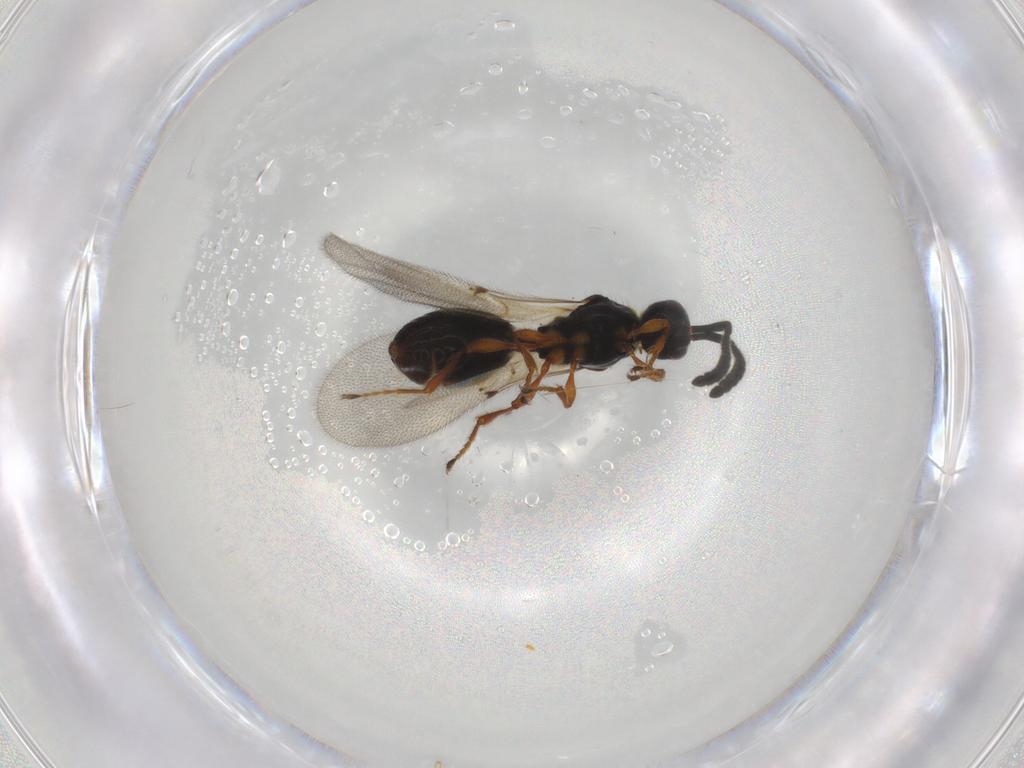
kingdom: Animalia
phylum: Arthropoda
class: Insecta
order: Hymenoptera
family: Diapriidae
